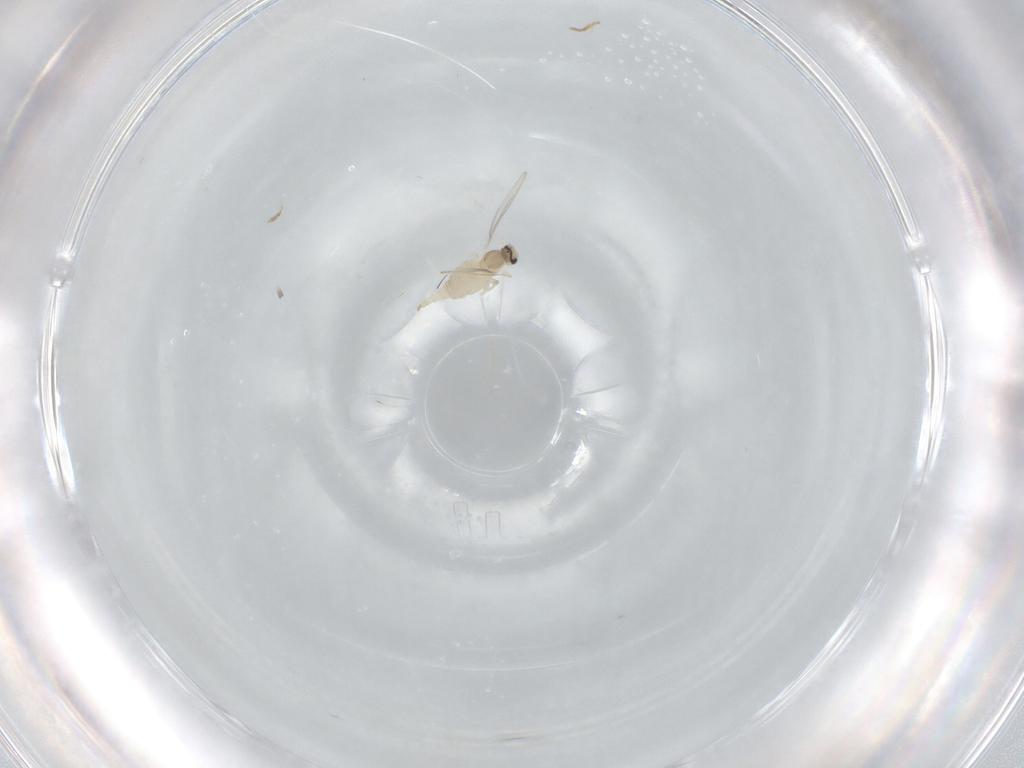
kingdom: Animalia
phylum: Arthropoda
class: Insecta
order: Diptera
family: Cecidomyiidae
